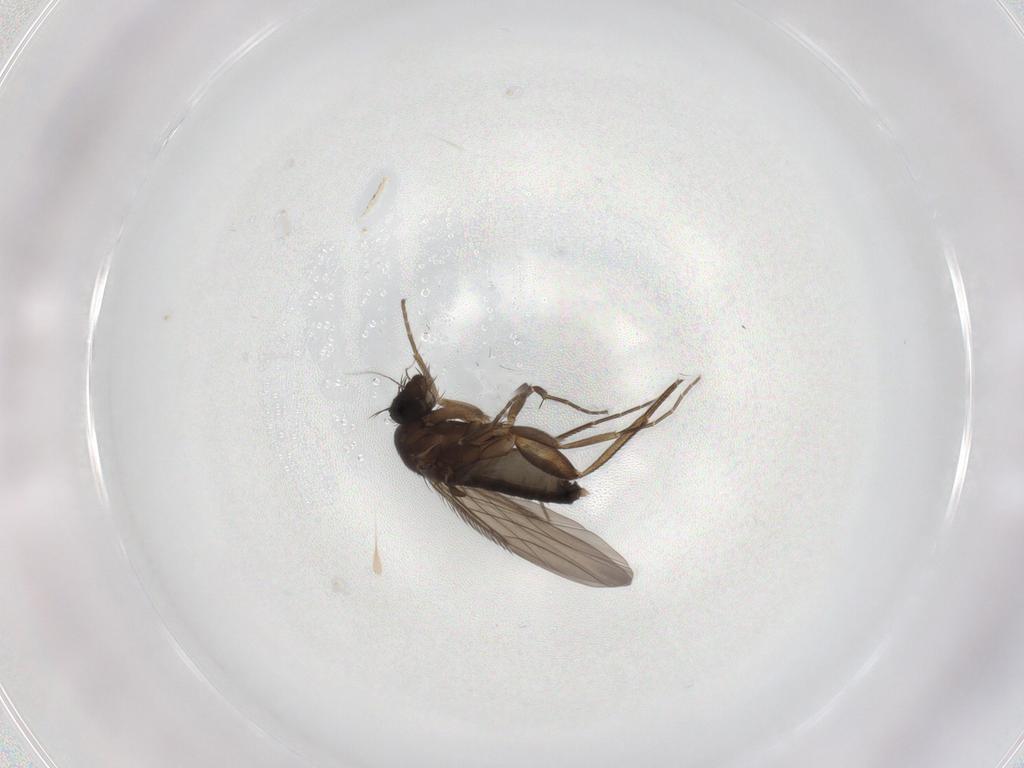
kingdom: Animalia
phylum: Arthropoda
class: Insecta
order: Diptera
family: Phoridae
